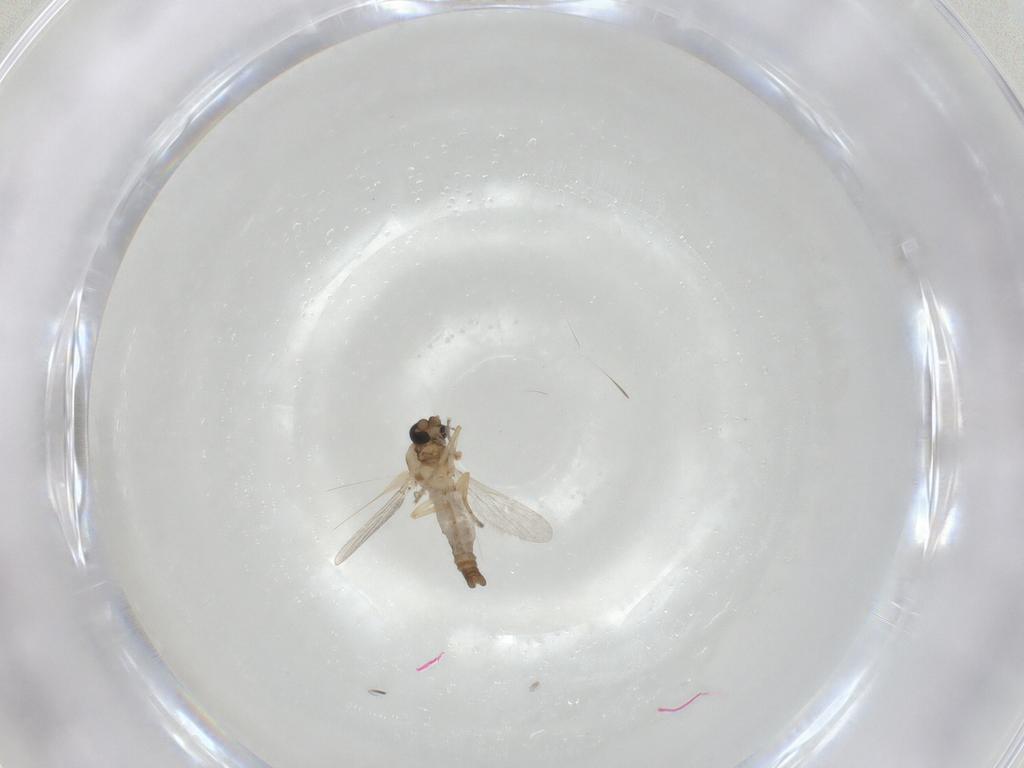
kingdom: Animalia
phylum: Arthropoda
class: Insecta
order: Diptera
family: Ceratopogonidae
